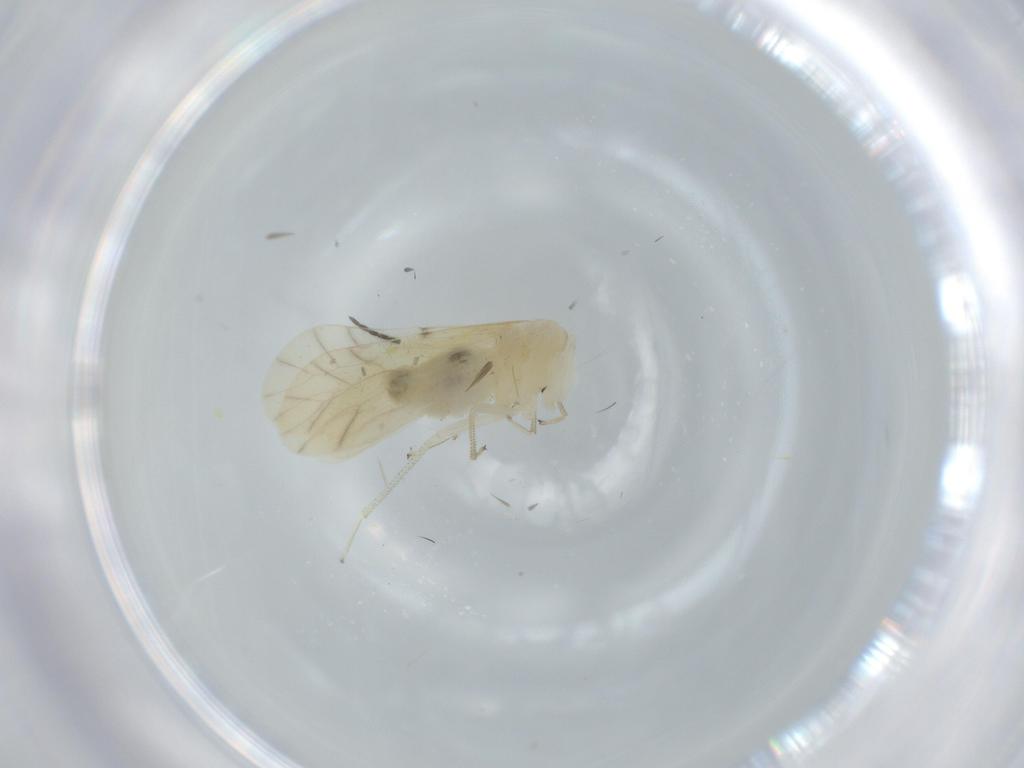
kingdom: Animalia
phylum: Arthropoda
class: Insecta
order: Psocodea
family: Caeciliusidae
